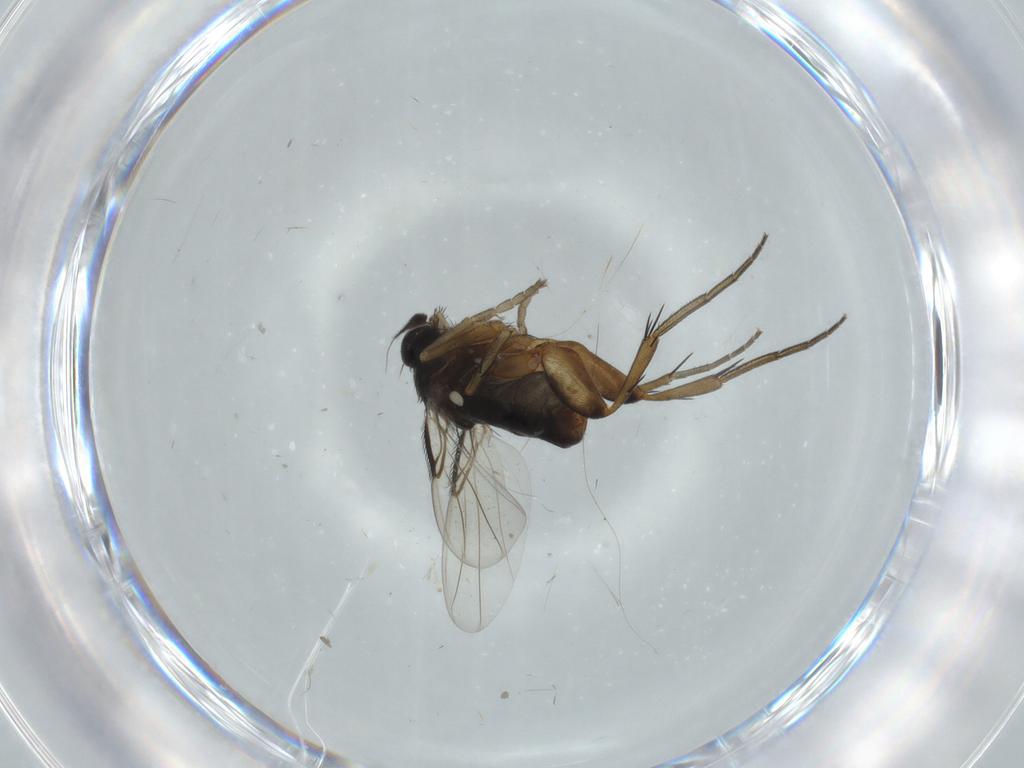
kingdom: Animalia
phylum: Arthropoda
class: Insecta
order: Diptera
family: Phoridae
